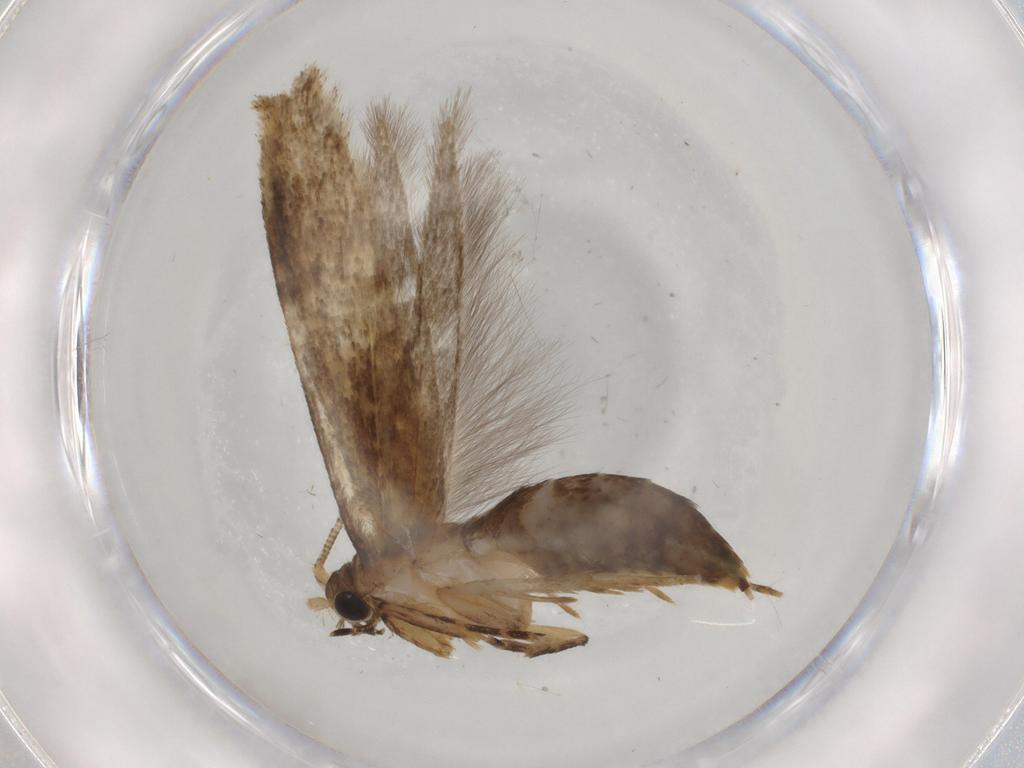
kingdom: Animalia
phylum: Arthropoda
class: Insecta
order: Lepidoptera
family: Tineidae
